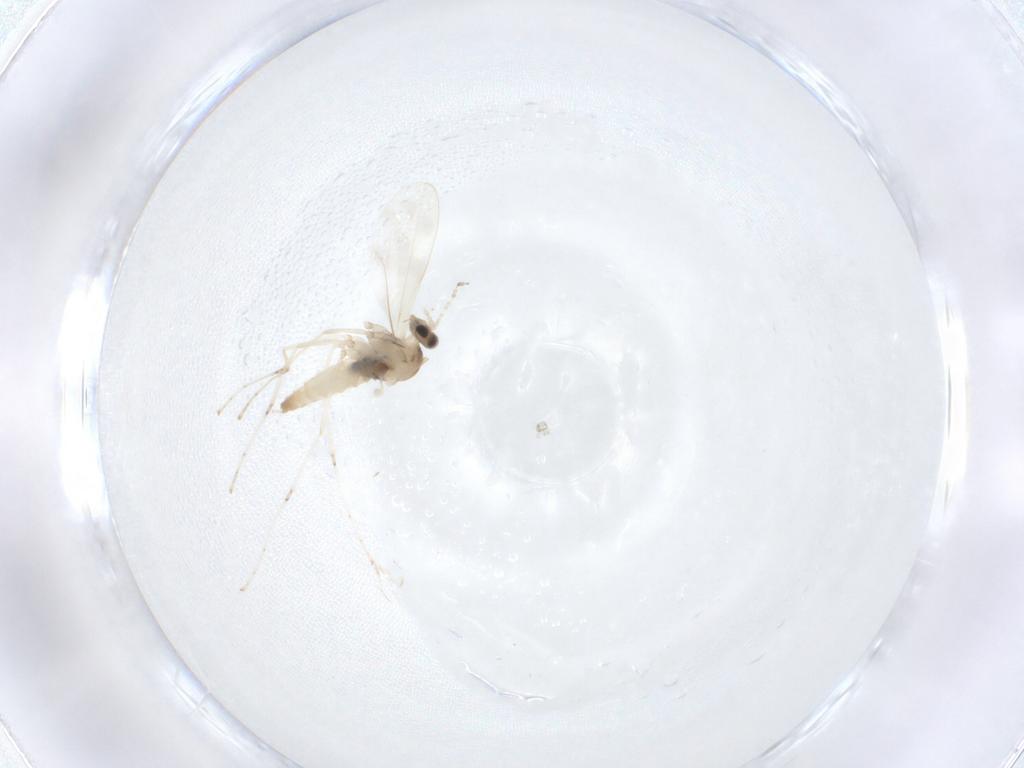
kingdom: Animalia
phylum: Arthropoda
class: Insecta
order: Diptera
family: Cecidomyiidae
